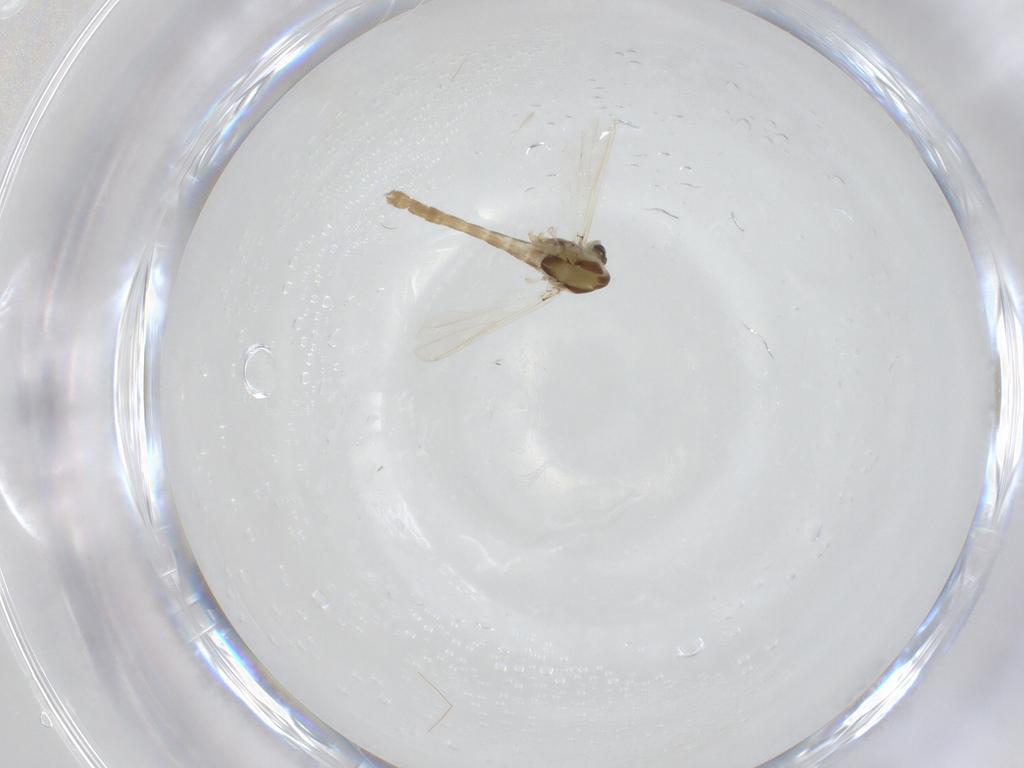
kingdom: Animalia
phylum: Arthropoda
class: Insecta
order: Diptera
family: Chironomidae
